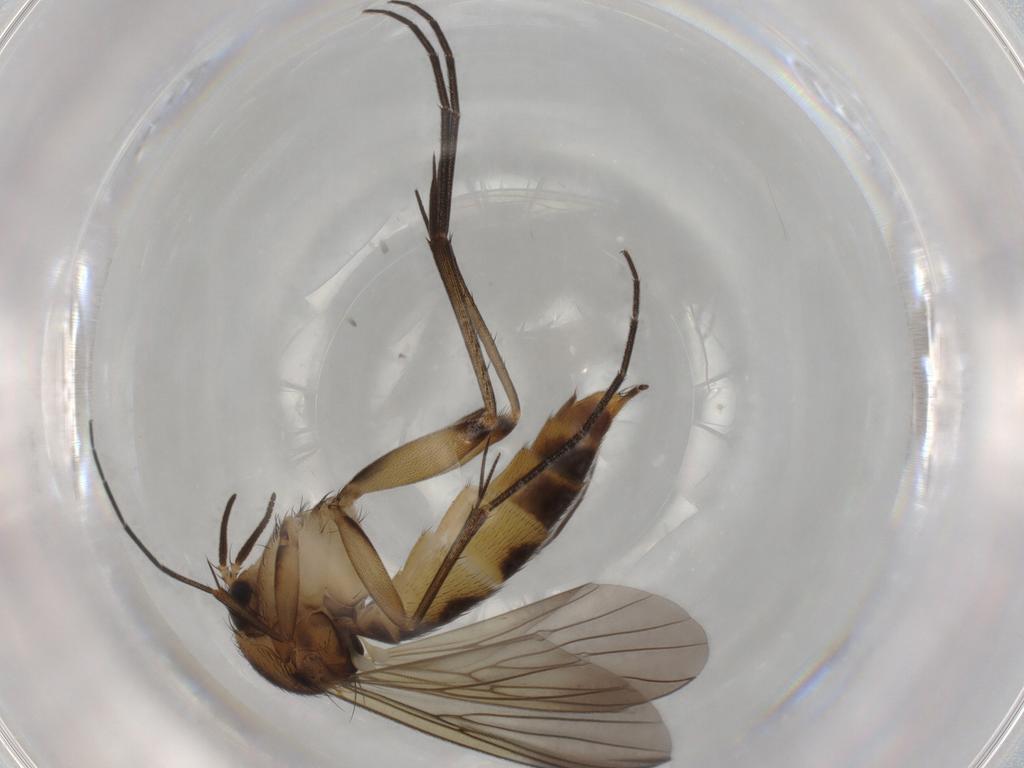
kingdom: Animalia
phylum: Arthropoda
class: Insecta
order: Diptera
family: Mycetophilidae
